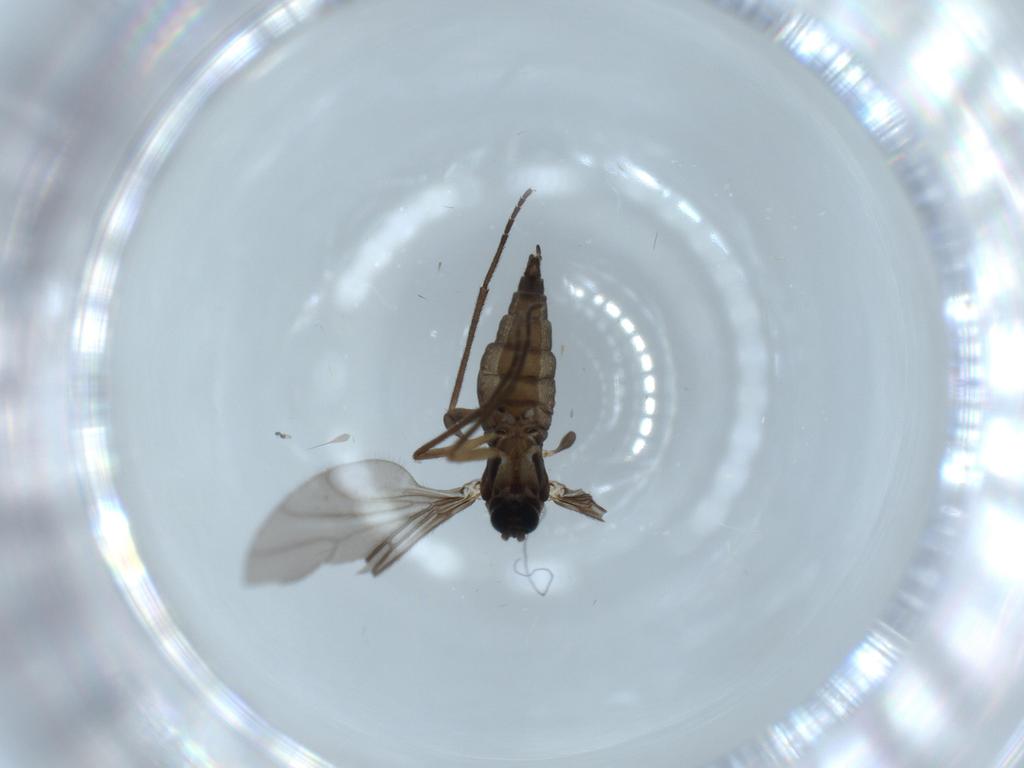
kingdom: Animalia
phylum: Arthropoda
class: Insecta
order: Diptera
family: Sciaridae
